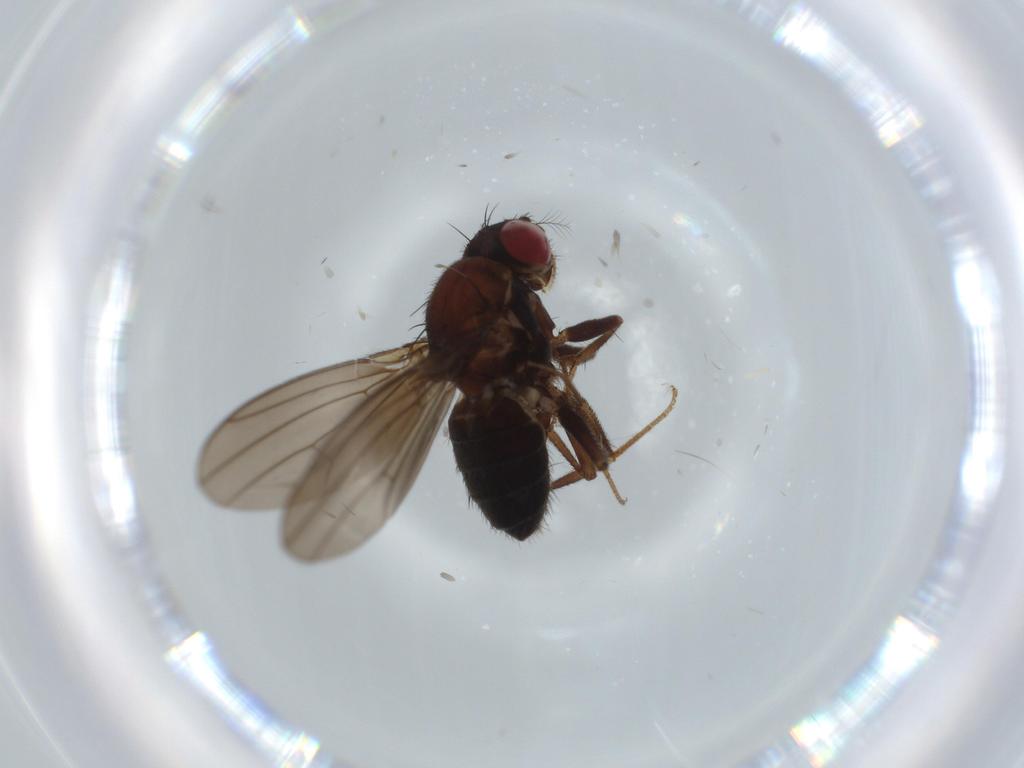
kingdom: Animalia
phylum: Arthropoda
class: Insecta
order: Diptera
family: Drosophilidae
